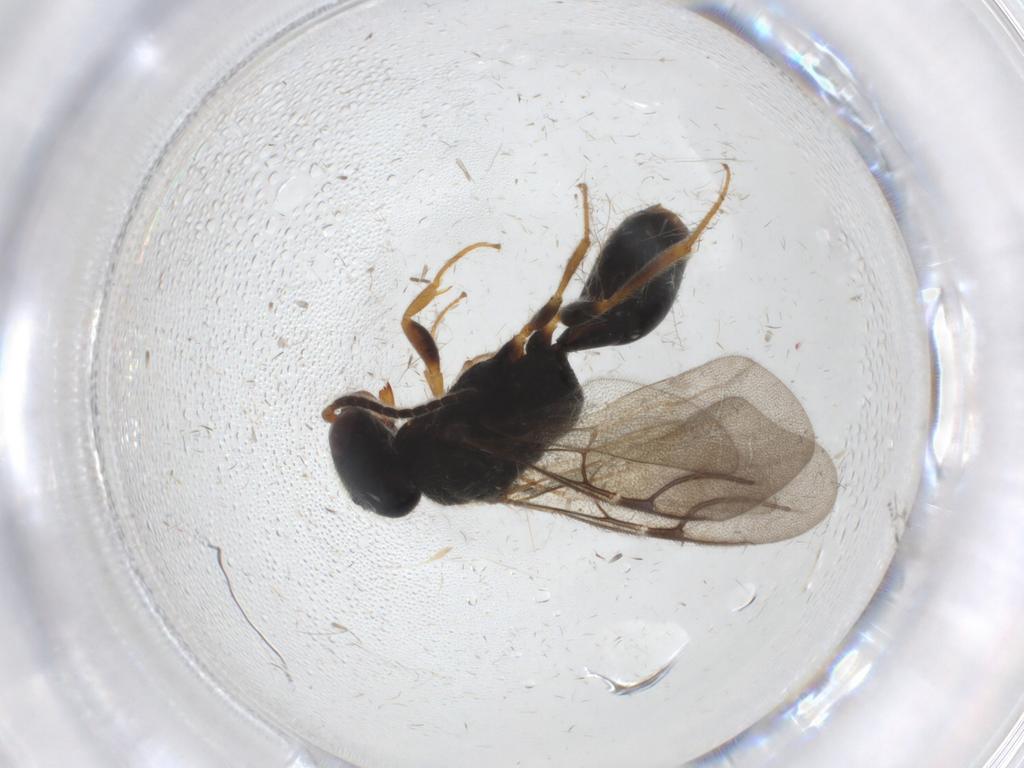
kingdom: Animalia
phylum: Arthropoda
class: Insecta
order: Hymenoptera
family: Bethylidae
